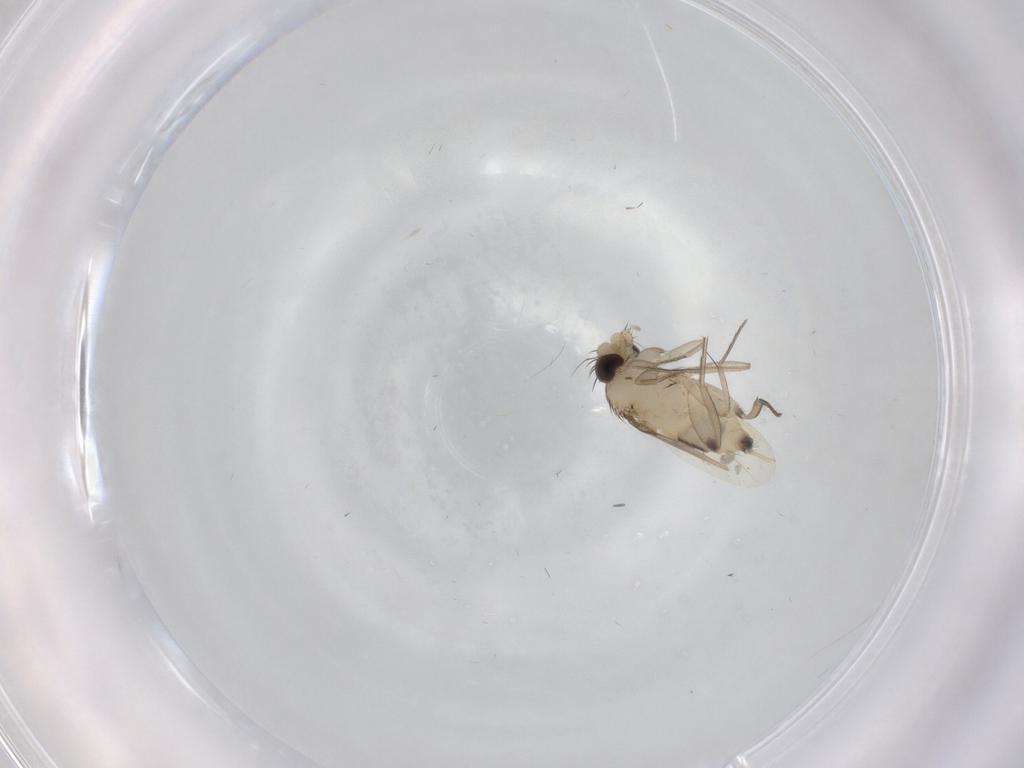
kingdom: Animalia
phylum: Arthropoda
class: Insecta
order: Diptera
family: Phoridae
